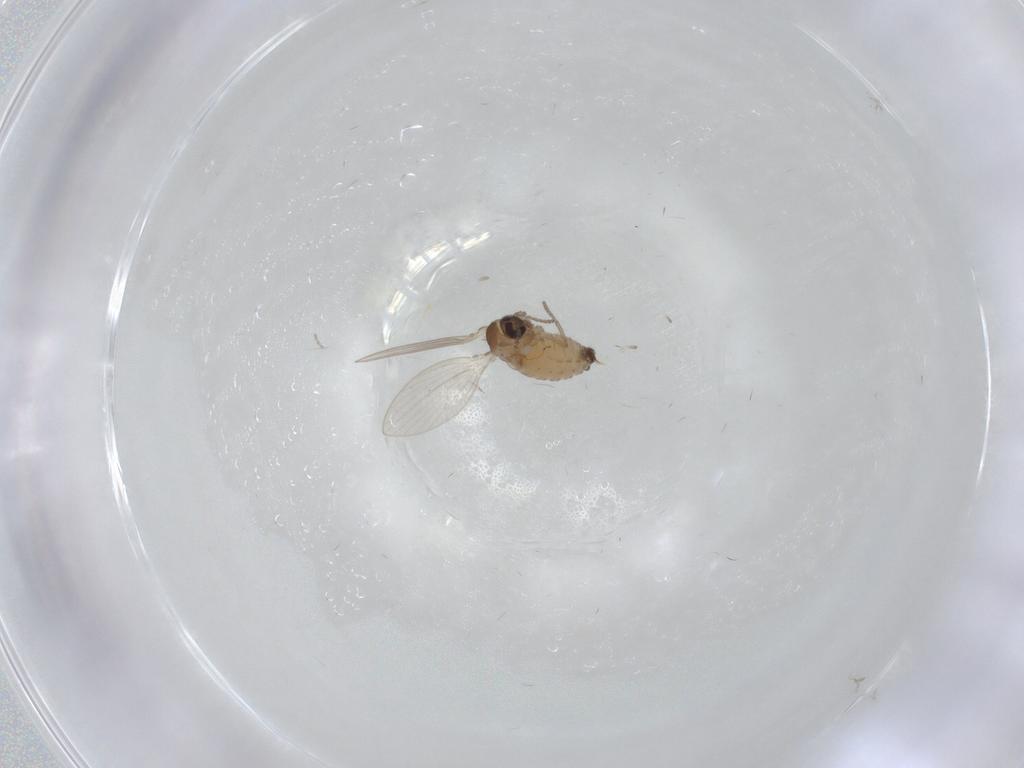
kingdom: Animalia
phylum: Arthropoda
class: Insecta
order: Diptera
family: Psychodidae
